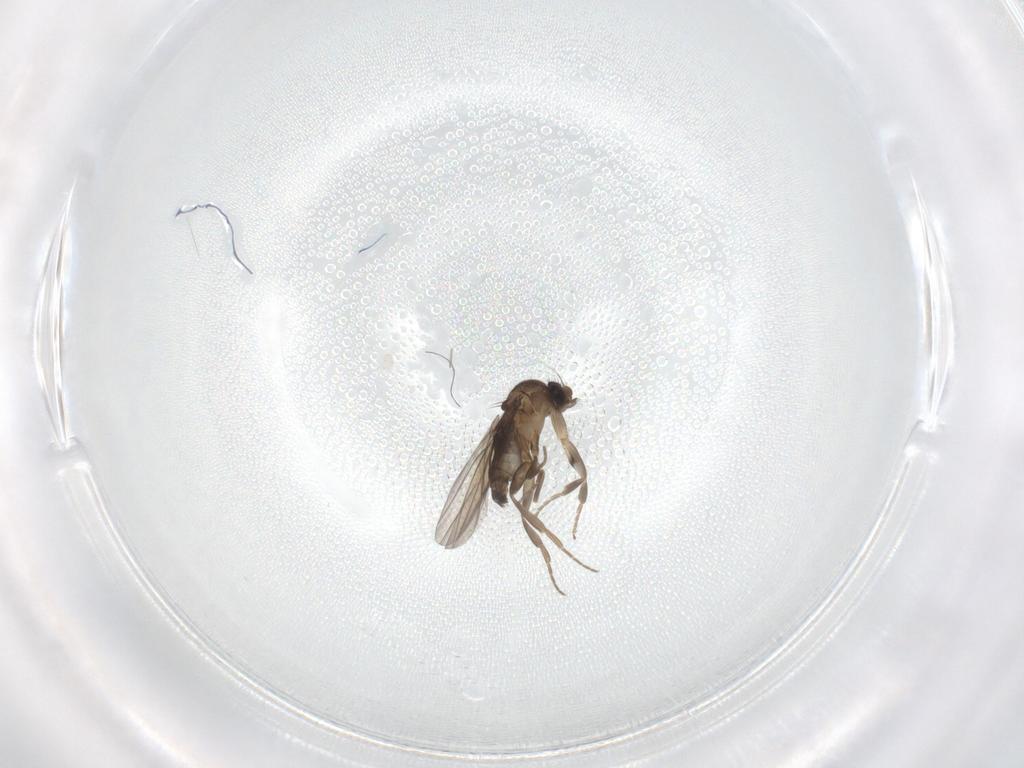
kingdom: Animalia
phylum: Arthropoda
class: Insecta
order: Diptera
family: Phoridae
